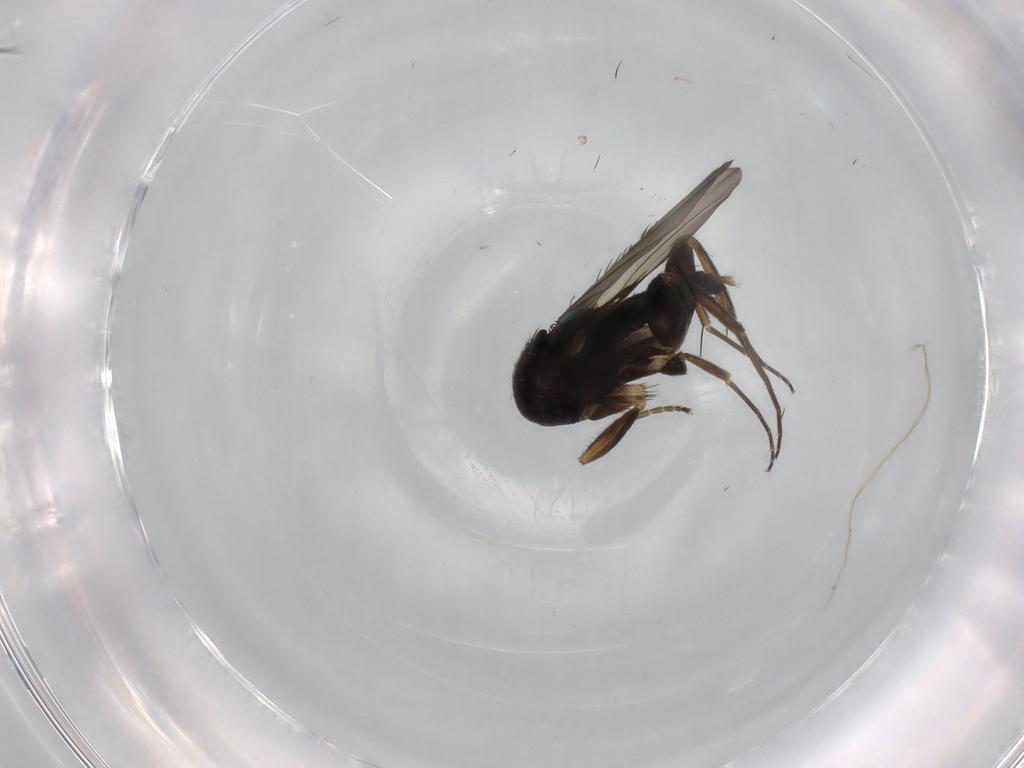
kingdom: Animalia
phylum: Arthropoda
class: Insecta
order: Diptera
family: Phoridae
